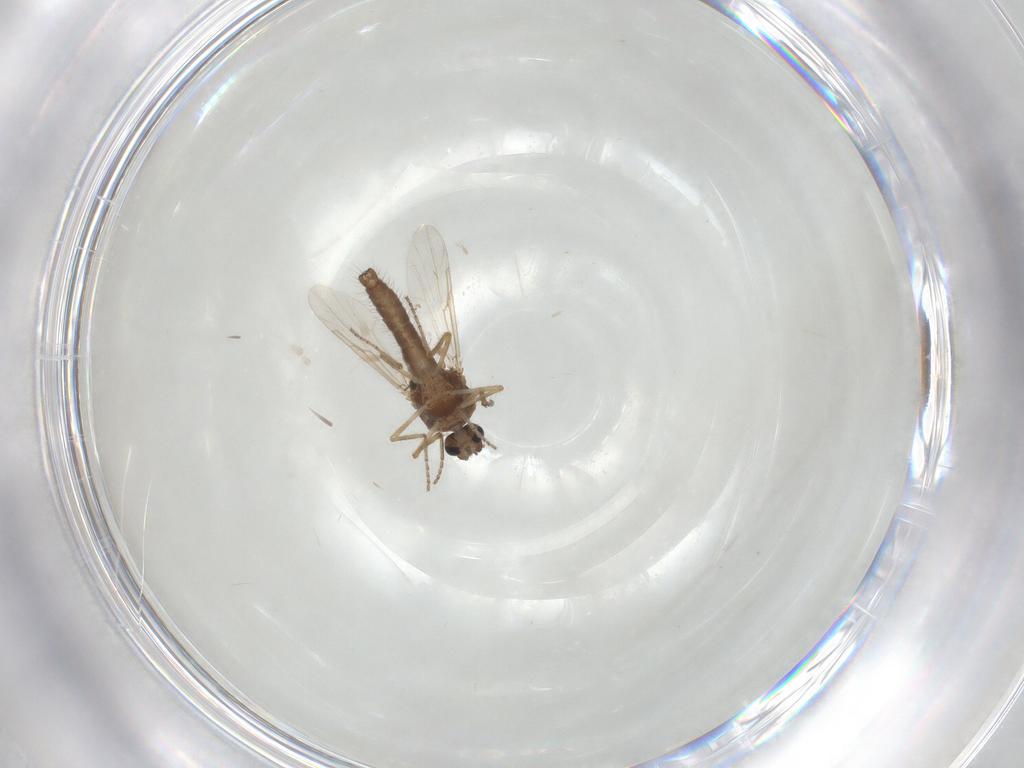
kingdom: Animalia
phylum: Arthropoda
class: Insecta
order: Diptera
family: Ceratopogonidae
